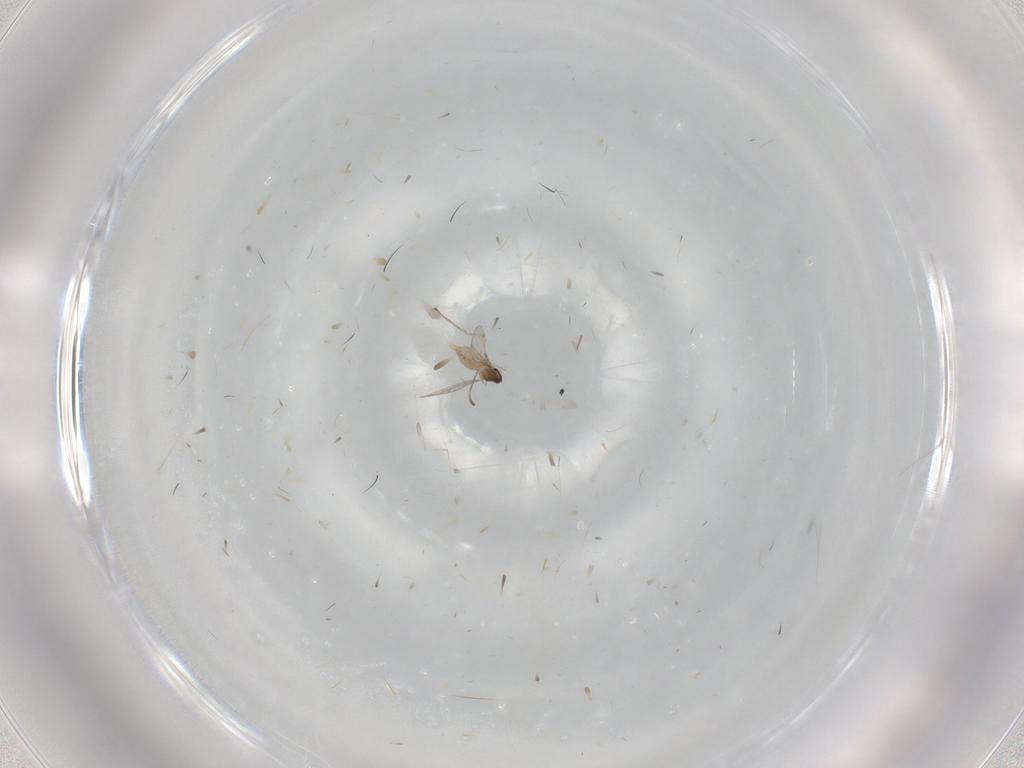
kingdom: Animalia
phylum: Arthropoda
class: Insecta
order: Diptera
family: Cecidomyiidae
